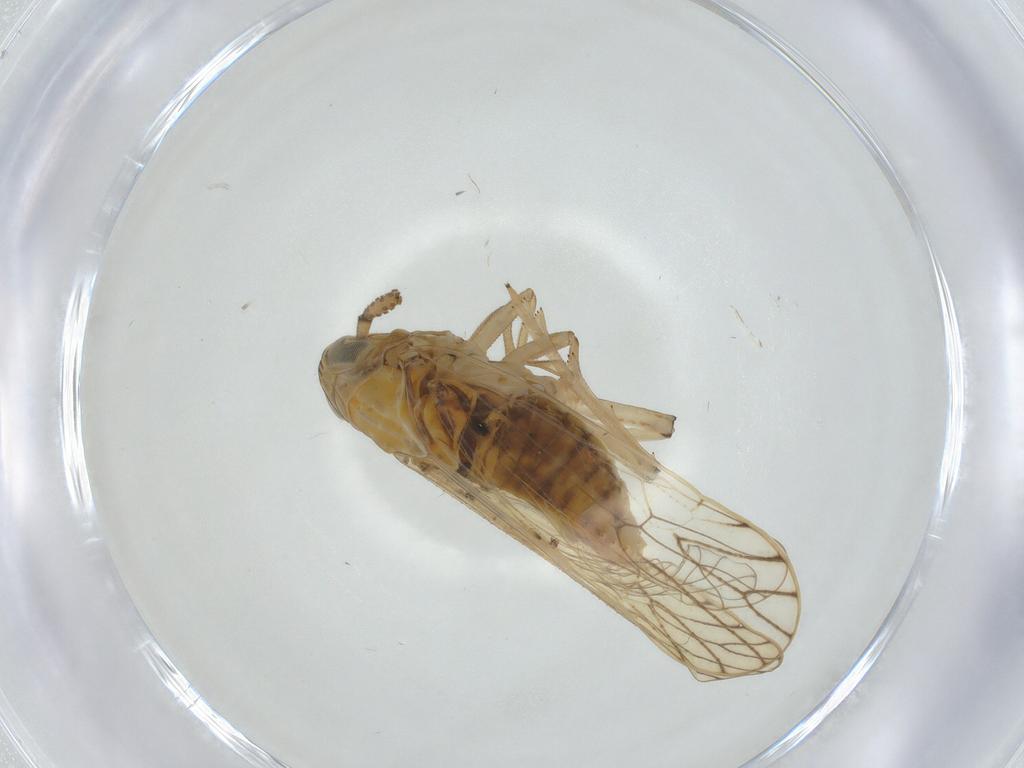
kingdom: Animalia
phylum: Arthropoda
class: Insecta
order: Hemiptera
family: Delphacidae
